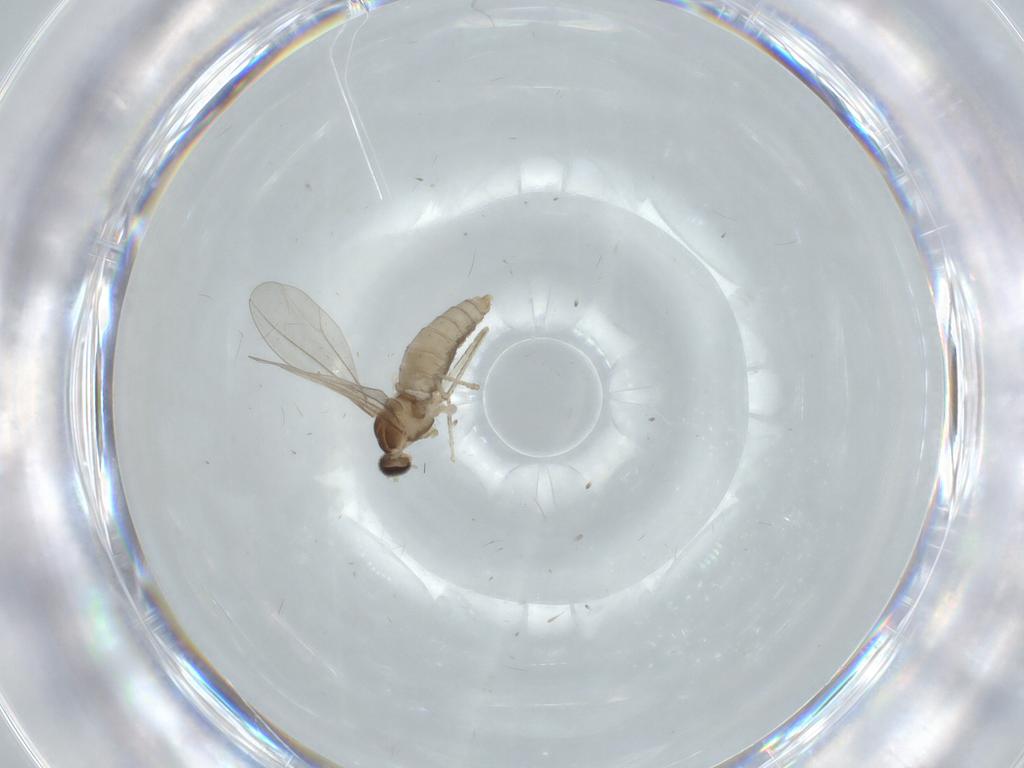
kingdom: Animalia
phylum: Arthropoda
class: Insecta
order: Diptera
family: Cecidomyiidae
